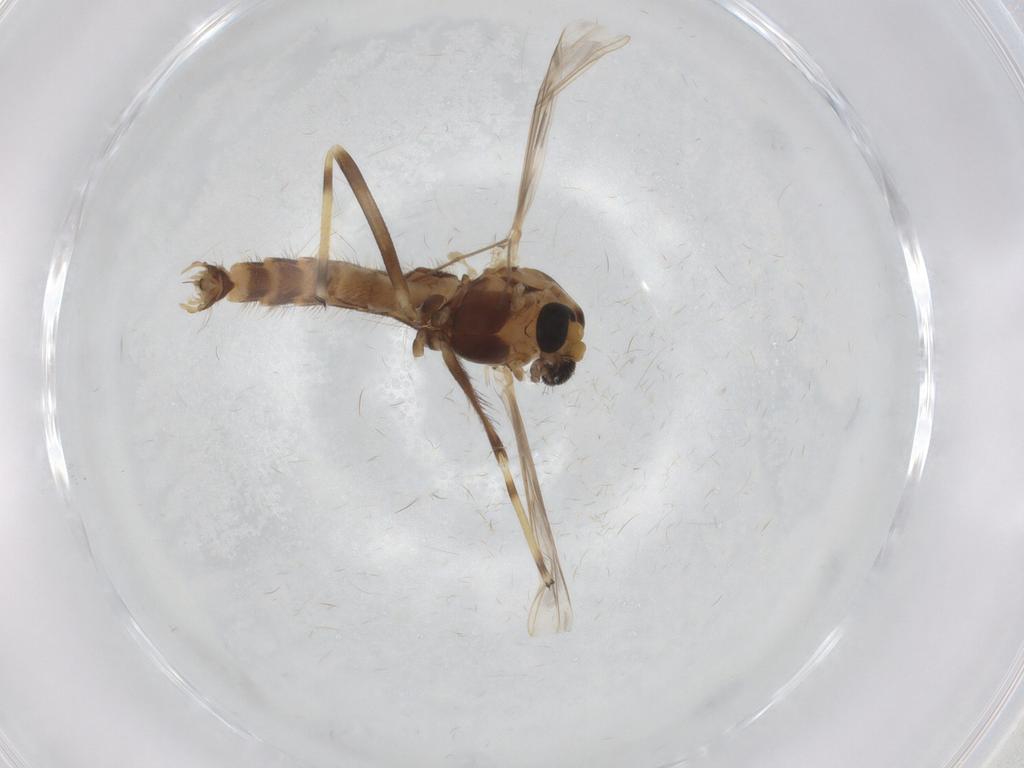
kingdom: Animalia
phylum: Arthropoda
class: Insecta
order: Diptera
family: Chironomidae
